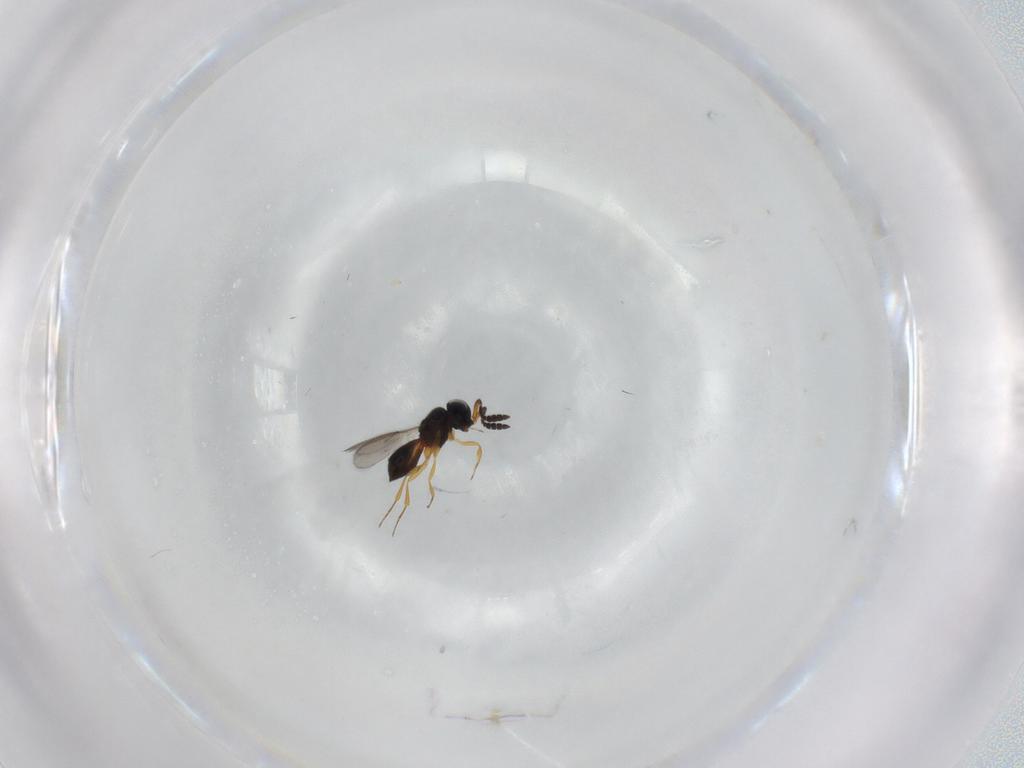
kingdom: Animalia
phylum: Arthropoda
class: Insecta
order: Hymenoptera
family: Scelionidae
